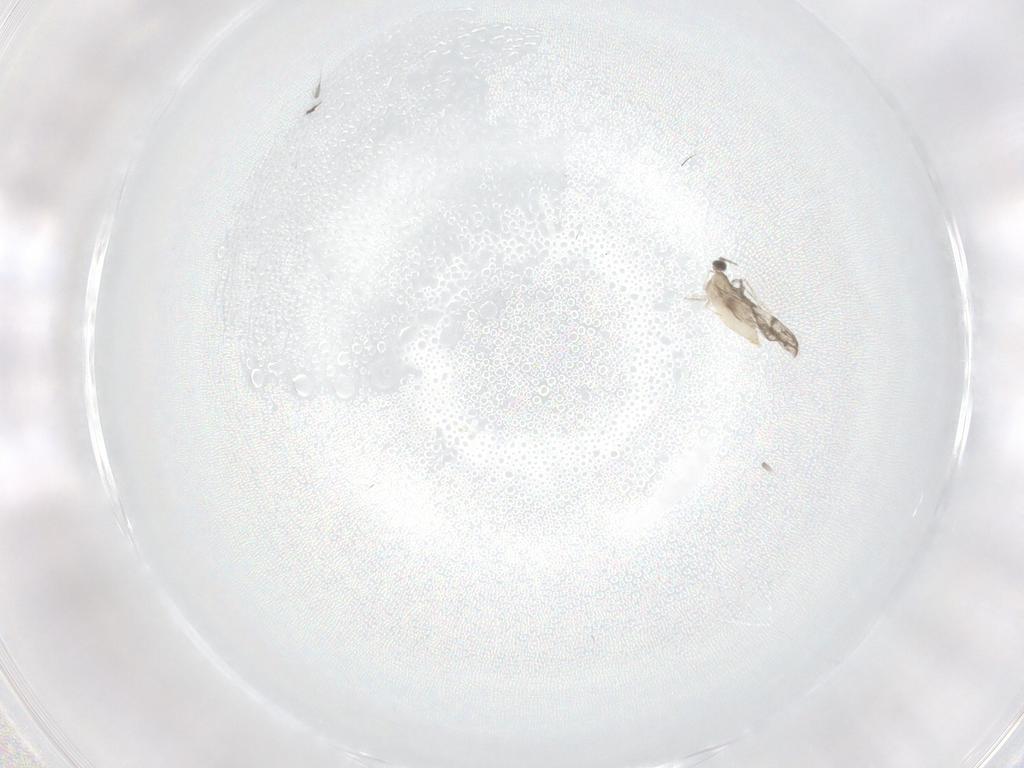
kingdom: Animalia
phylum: Arthropoda
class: Insecta
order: Diptera
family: Cecidomyiidae
